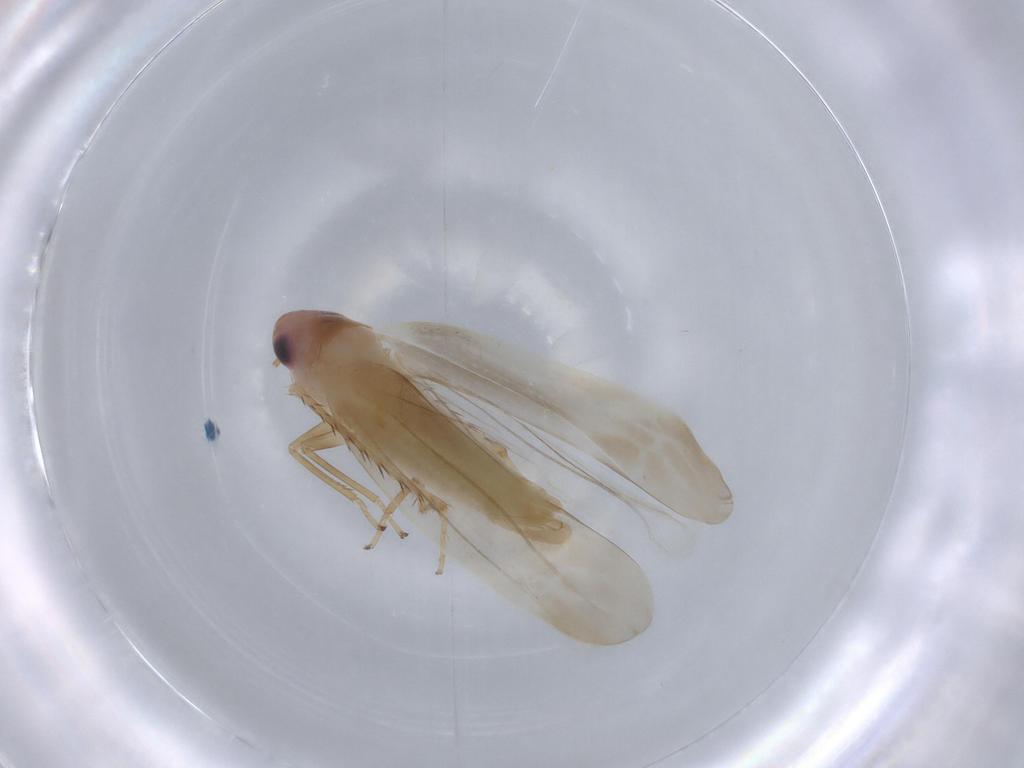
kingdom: Animalia
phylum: Arthropoda
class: Insecta
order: Hemiptera
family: Cicadellidae
